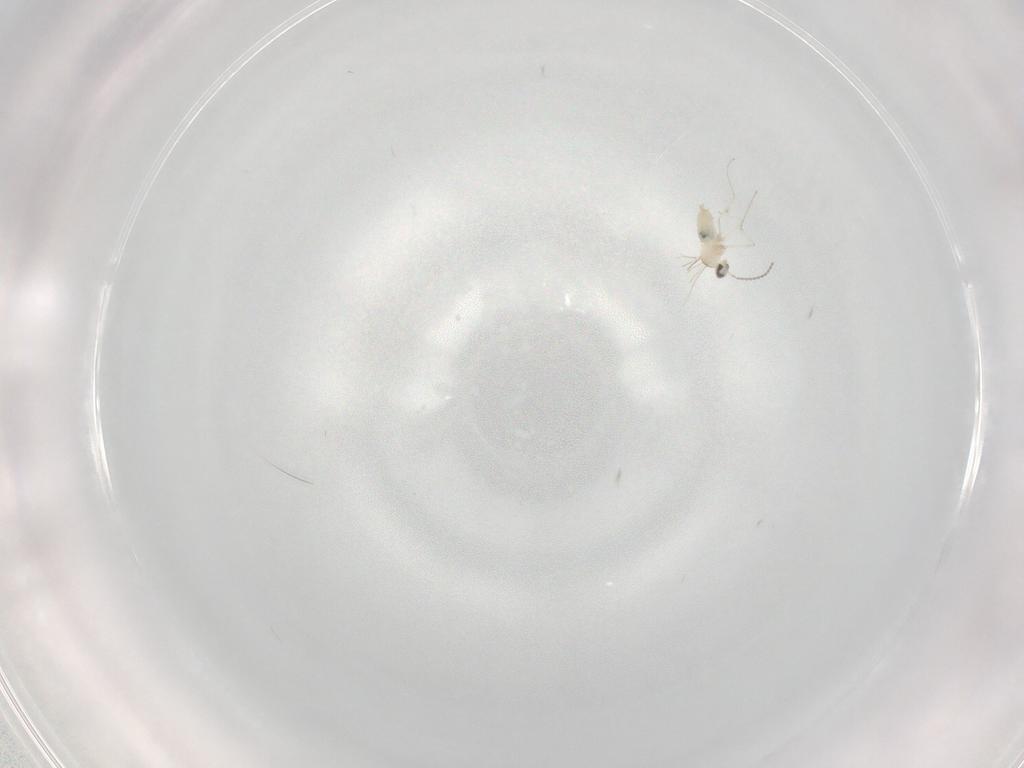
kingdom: Animalia
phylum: Arthropoda
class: Insecta
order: Diptera
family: Cecidomyiidae
